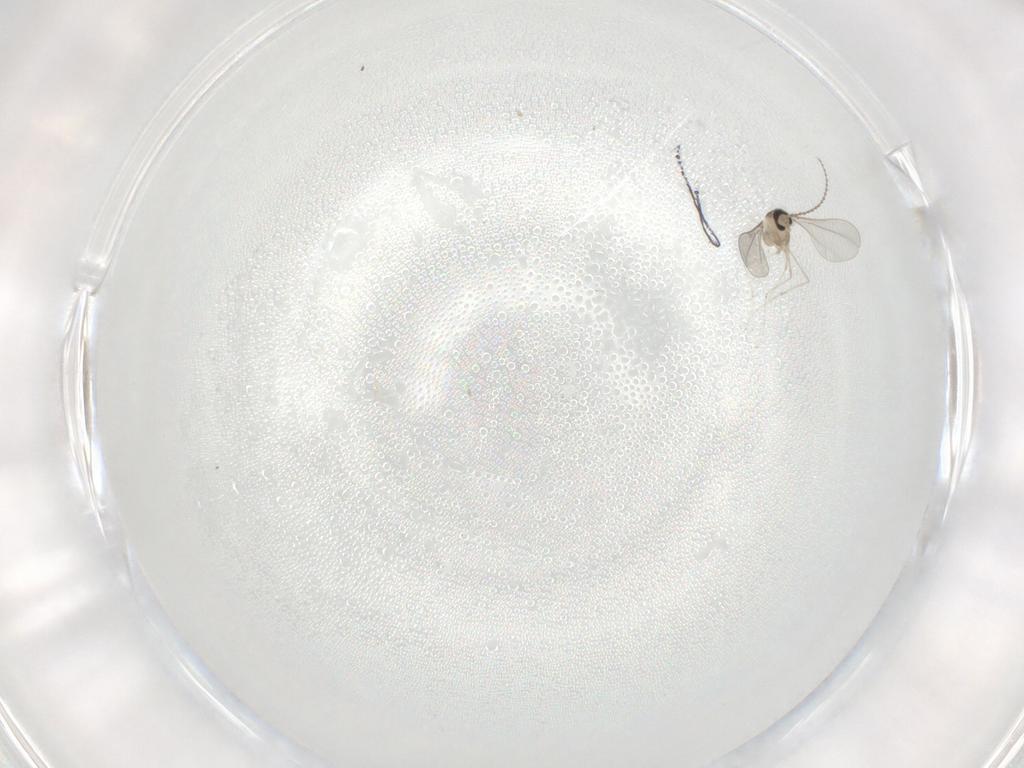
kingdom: Animalia
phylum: Arthropoda
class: Insecta
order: Diptera
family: Cecidomyiidae
